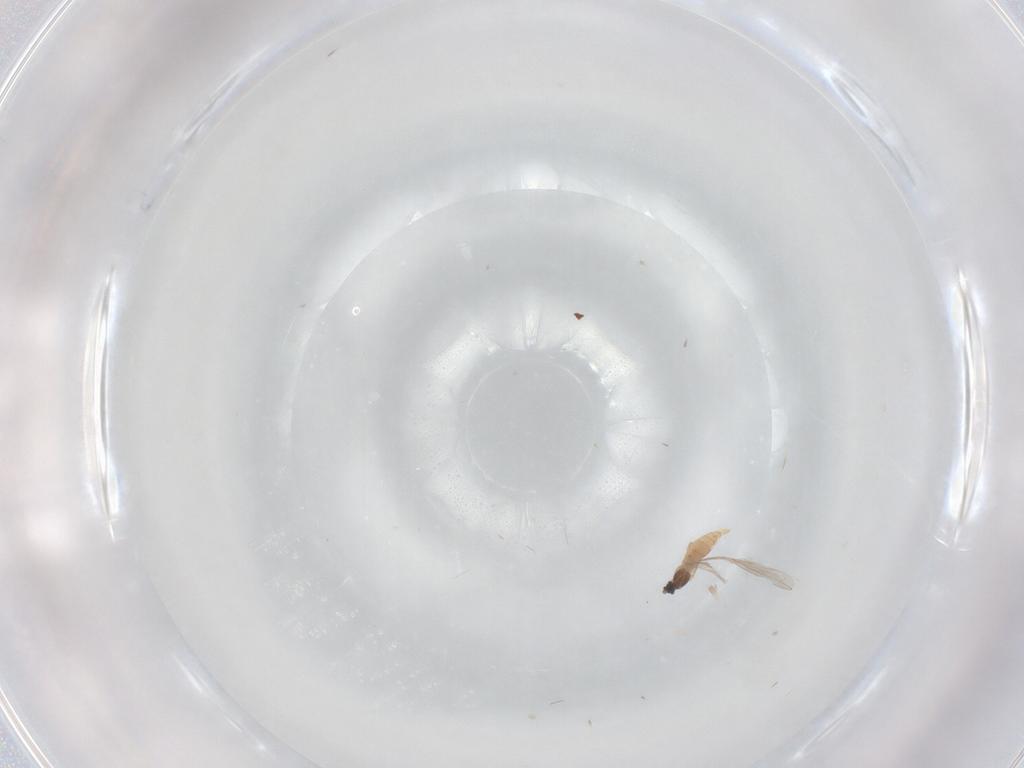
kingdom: Animalia
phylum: Arthropoda
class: Insecta
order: Diptera
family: Cecidomyiidae
